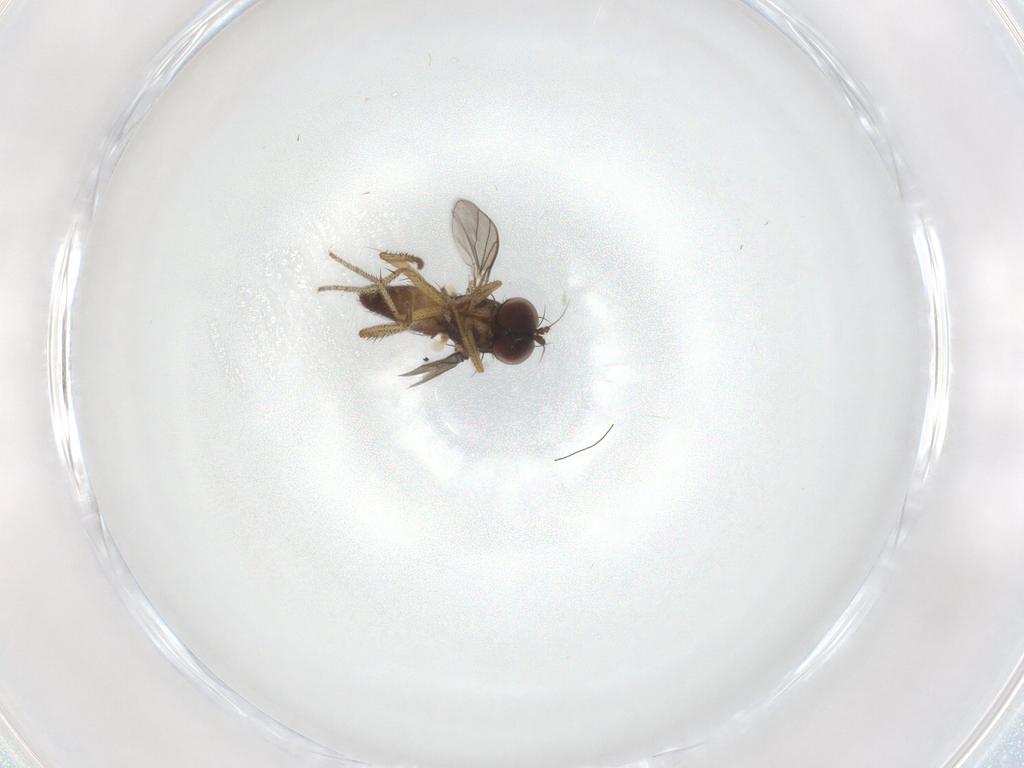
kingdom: Animalia
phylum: Arthropoda
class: Insecta
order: Diptera
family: Dolichopodidae
